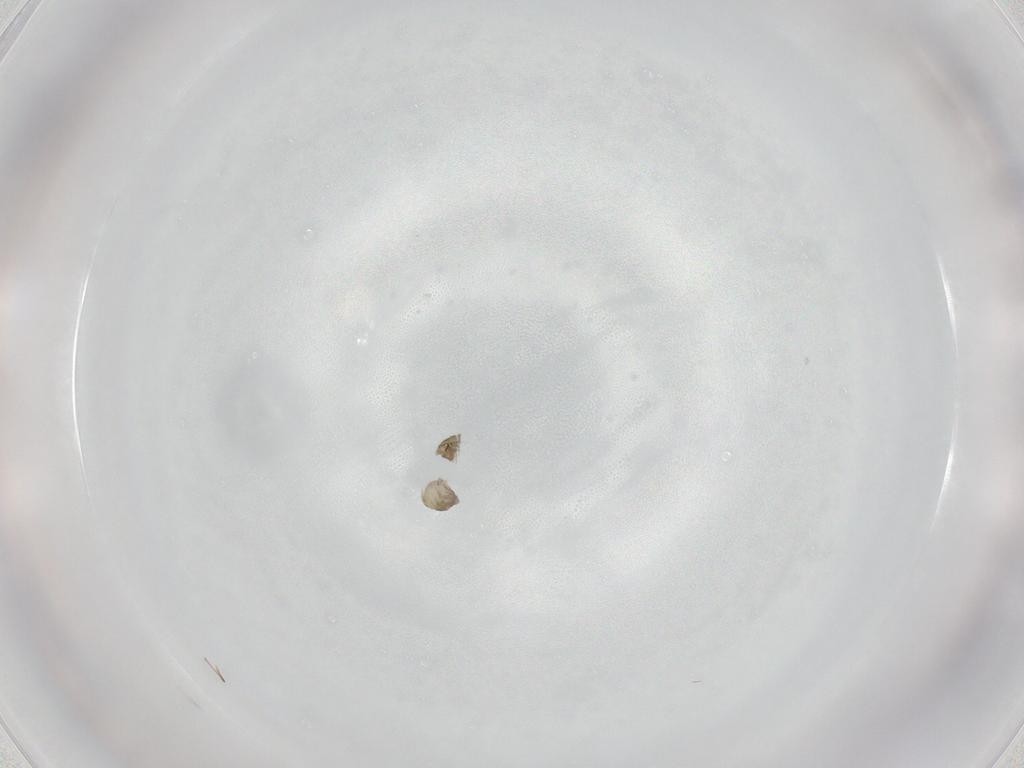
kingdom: Animalia
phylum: Arthropoda
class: Insecta
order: Diptera
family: Chironomidae
